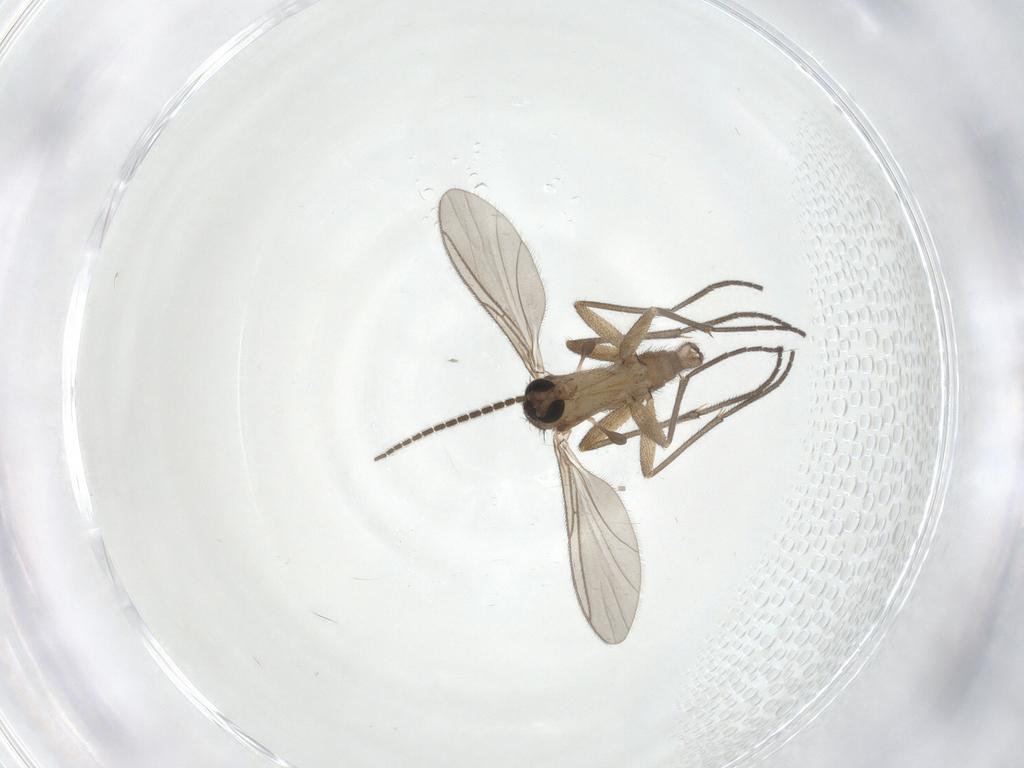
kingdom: Animalia
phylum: Arthropoda
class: Insecta
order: Diptera
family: Sciaridae
